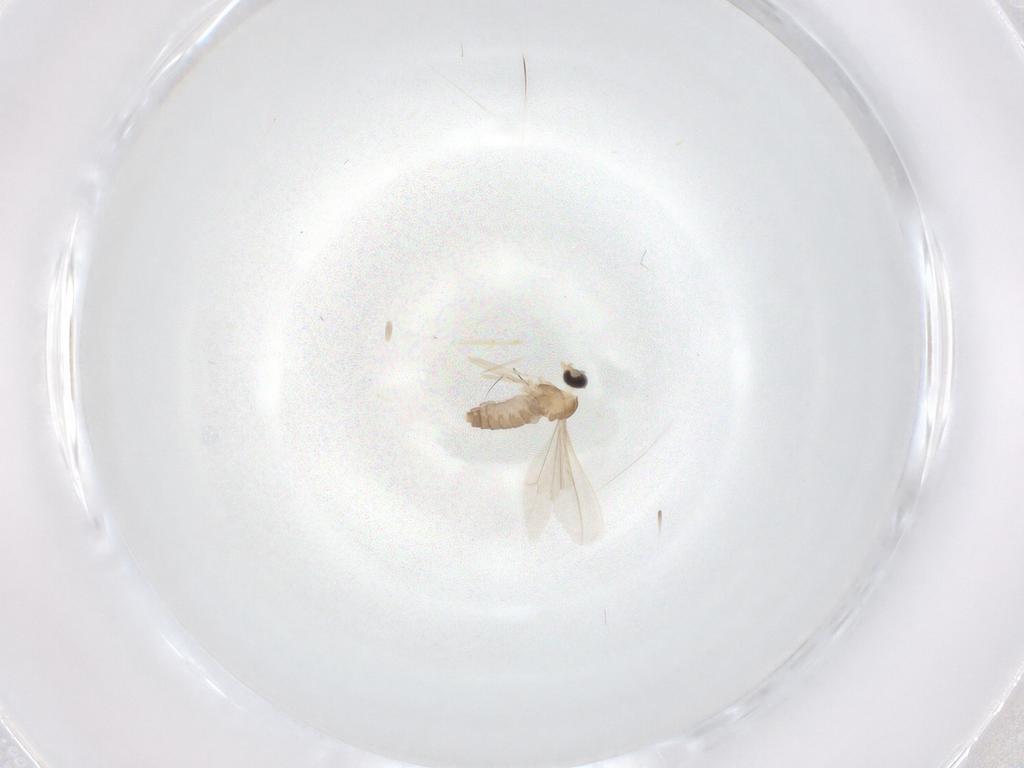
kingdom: Animalia
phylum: Arthropoda
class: Insecta
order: Diptera
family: Cecidomyiidae
